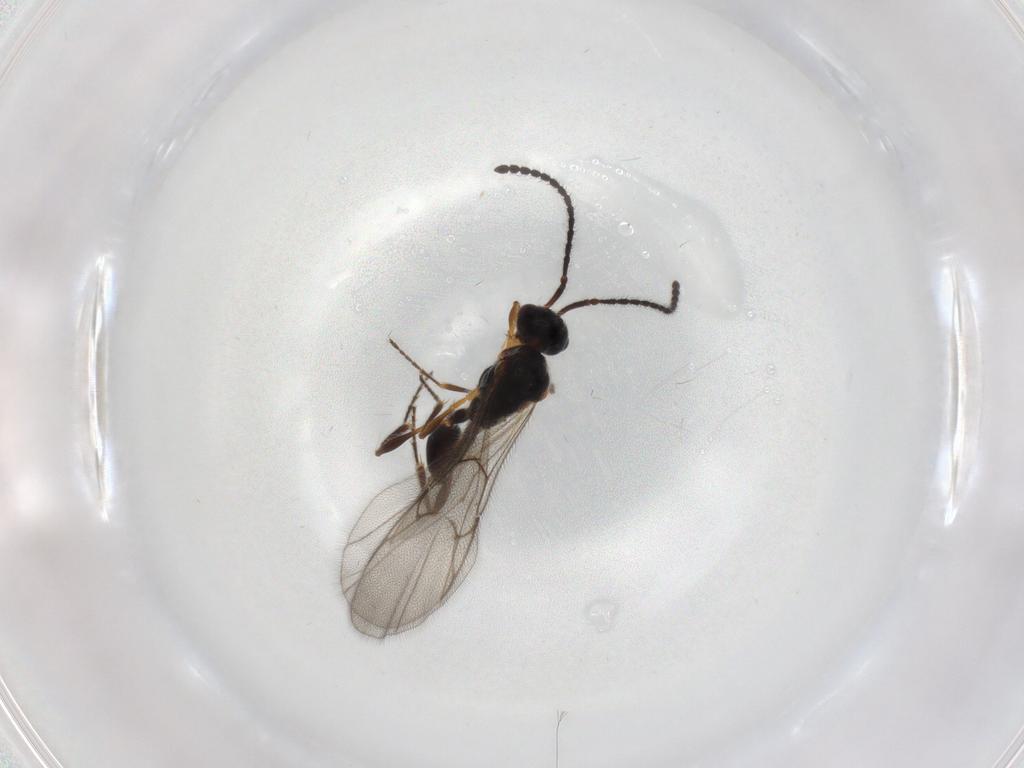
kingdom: Animalia
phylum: Arthropoda
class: Insecta
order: Hymenoptera
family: Diapriidae
